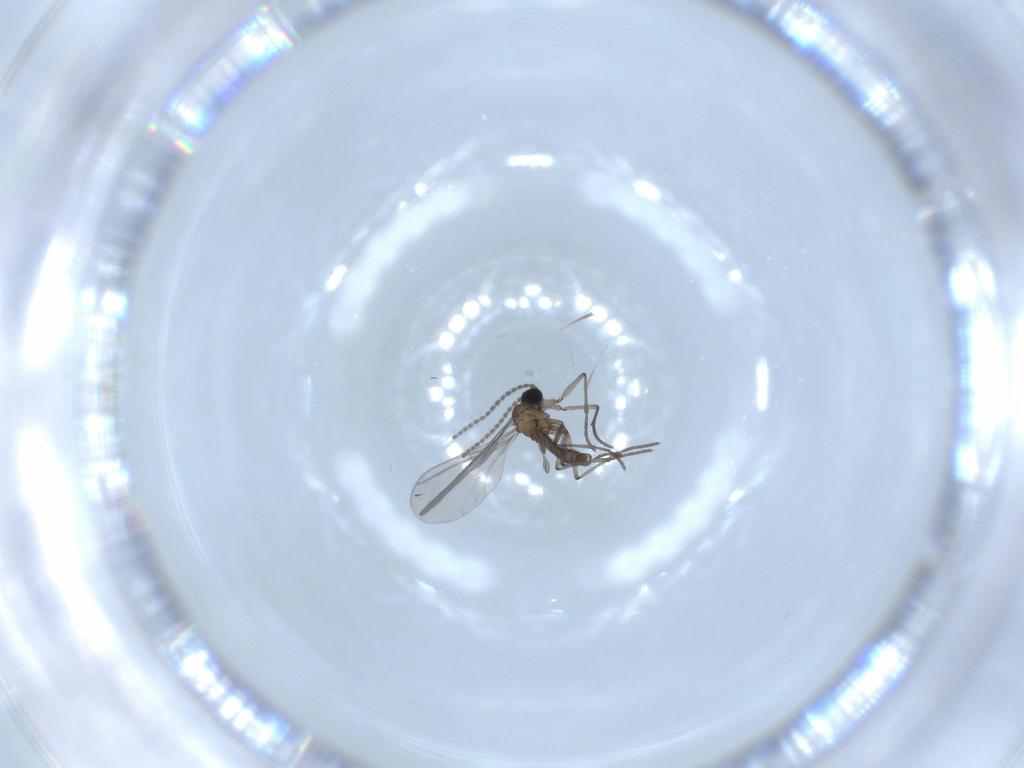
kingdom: Animalia
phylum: Arthropoda
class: Insecta
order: Diptera
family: Sciaridae
